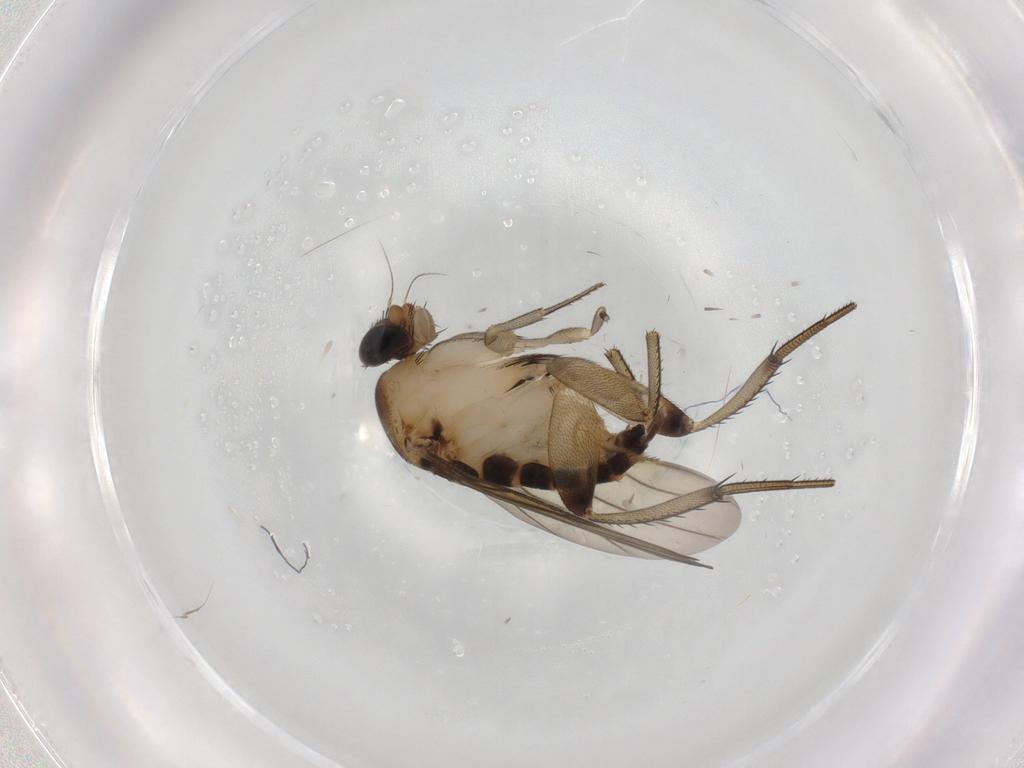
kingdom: Animalia
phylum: Arthropoda
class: Insecta
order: Diptera
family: Phoridae
